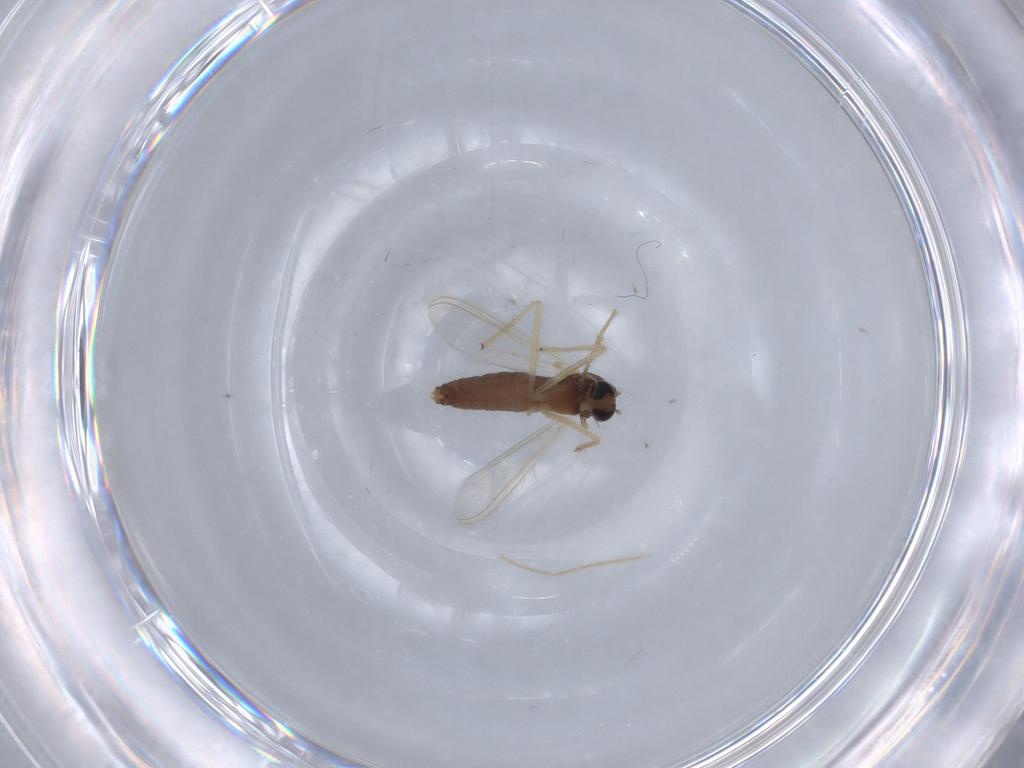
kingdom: Animalia
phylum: Arthropoda
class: Insecta
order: Diptera
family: Chironomidae
